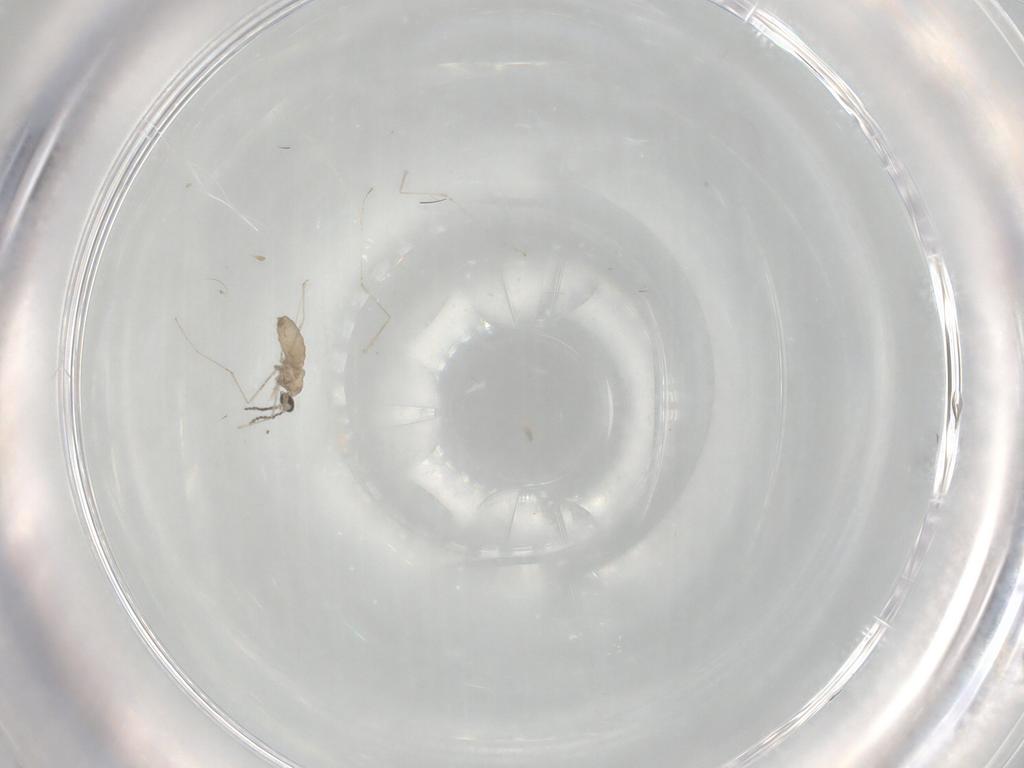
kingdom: Animalia
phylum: Arthropoda
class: Insecta
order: Diptera
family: Cecidomyiidae
